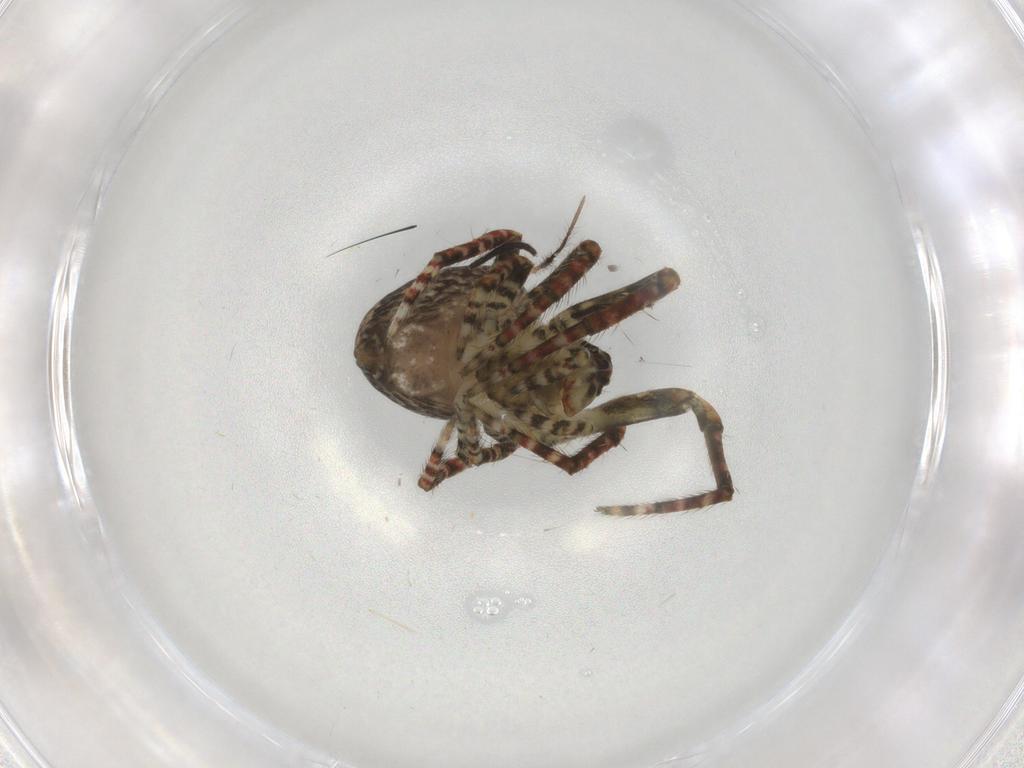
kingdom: Animalia
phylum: Arthropoda
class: Arachnida
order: Araneae
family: Araneidae
